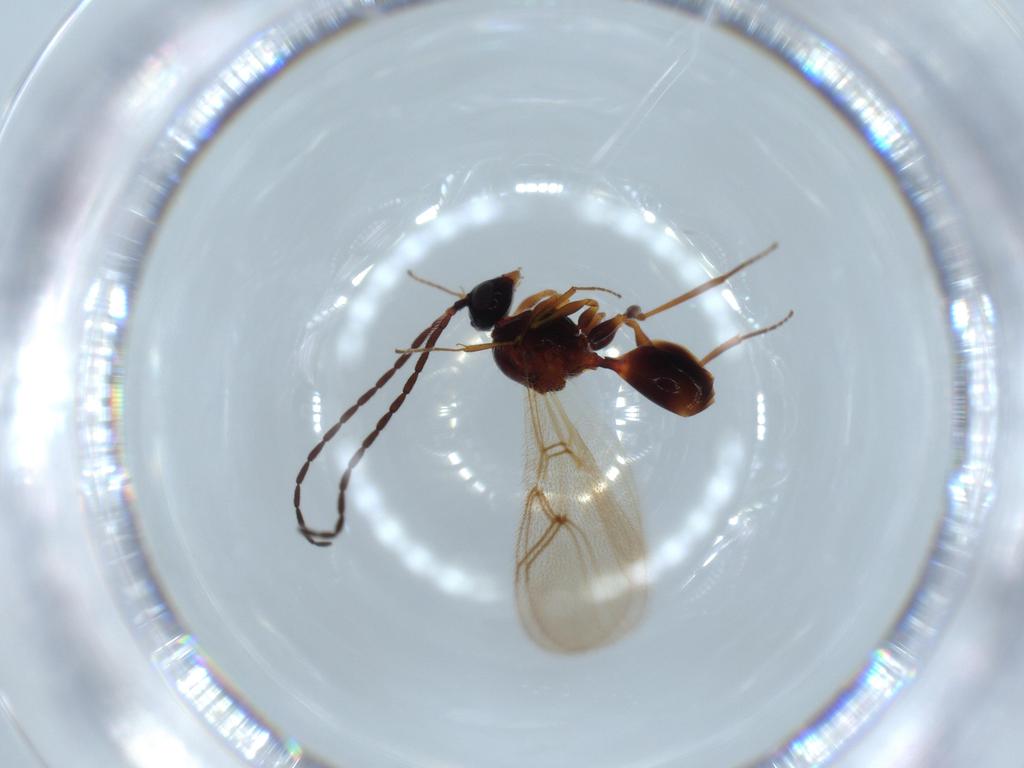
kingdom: Animalia
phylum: Arthropoda
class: Insecta
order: Hymenoptera
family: Figitidae
